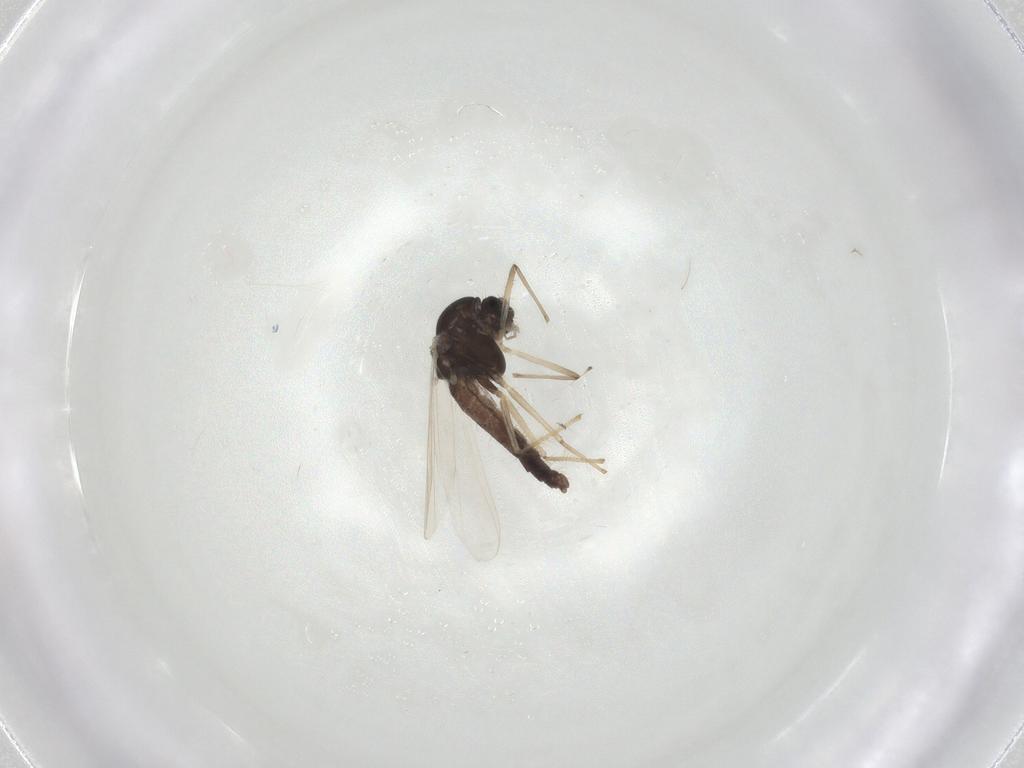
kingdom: Animalia
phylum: Arthropoda
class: Insecta
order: Diptera
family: Chironomidae
